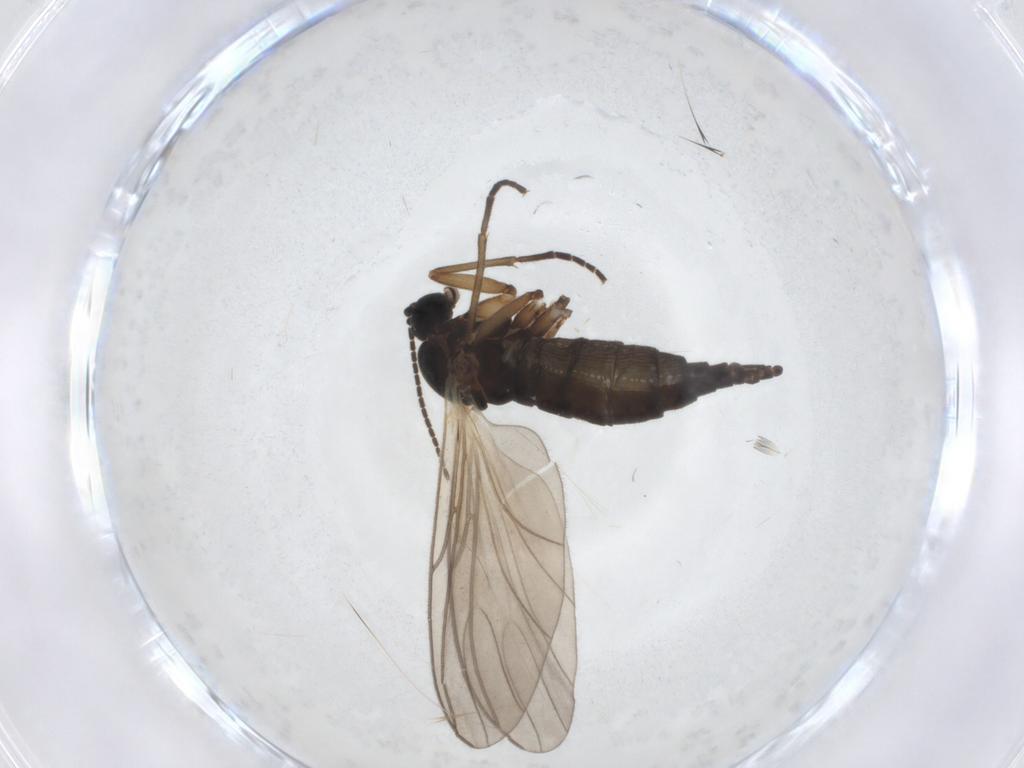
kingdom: Animalia
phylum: Arthropoda
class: Insecta
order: Diptera
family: Sciaridae
